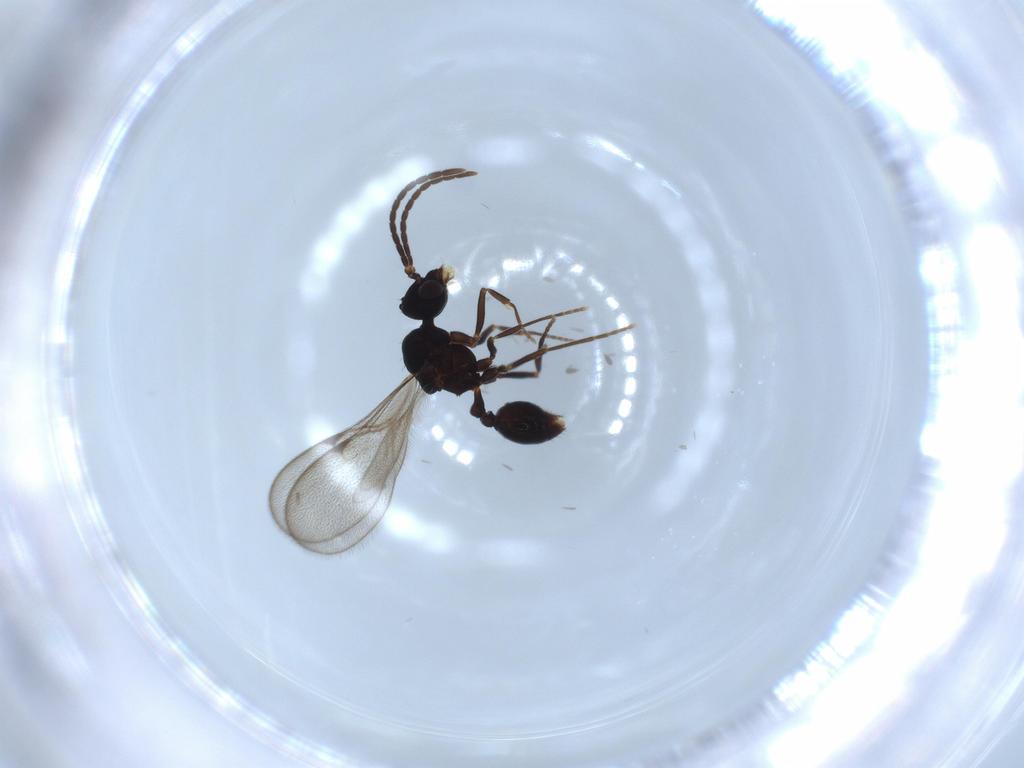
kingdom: Animalia
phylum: Arthropoda
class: Insecta
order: Hymenoptera
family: Formicidae
